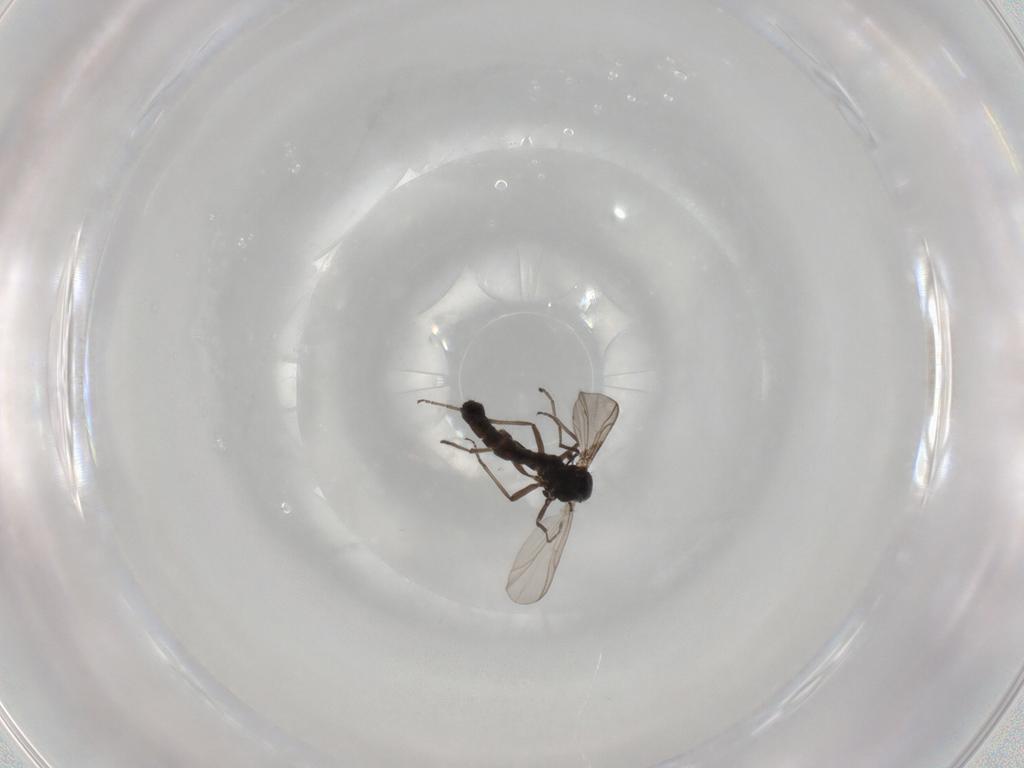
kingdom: Animalia
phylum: Arthropoda
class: Insecta
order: Diptera
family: Chironomidae
